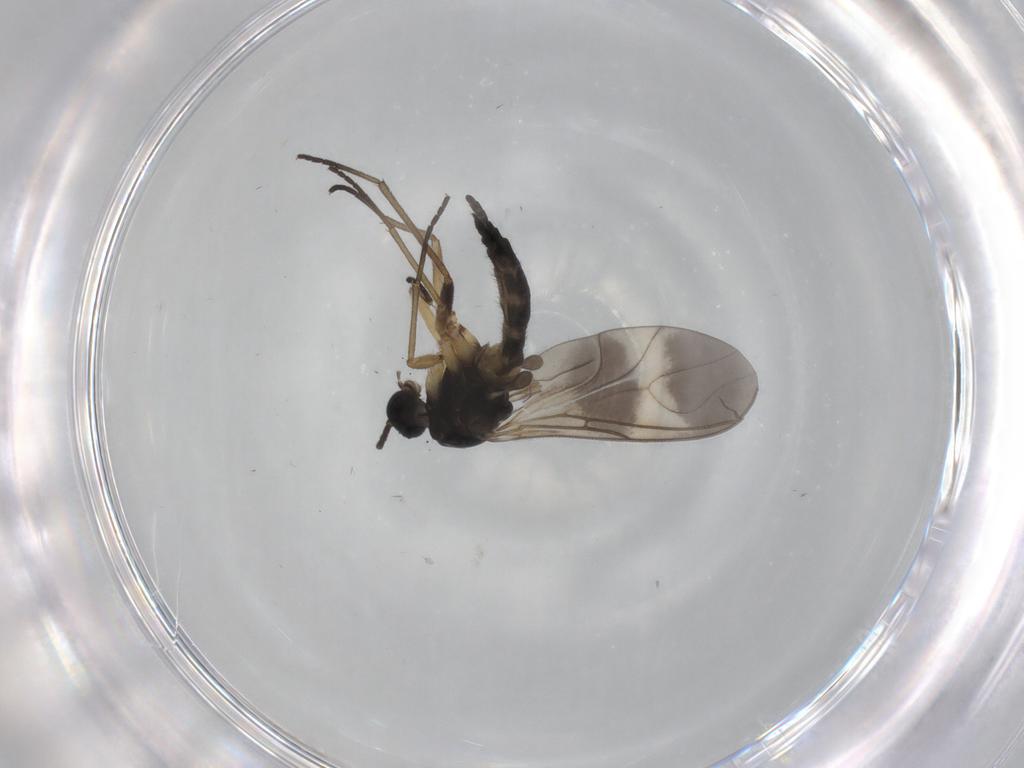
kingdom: Animalia
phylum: Arthropoda
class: Insecta
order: Diptera
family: Sciaridae
